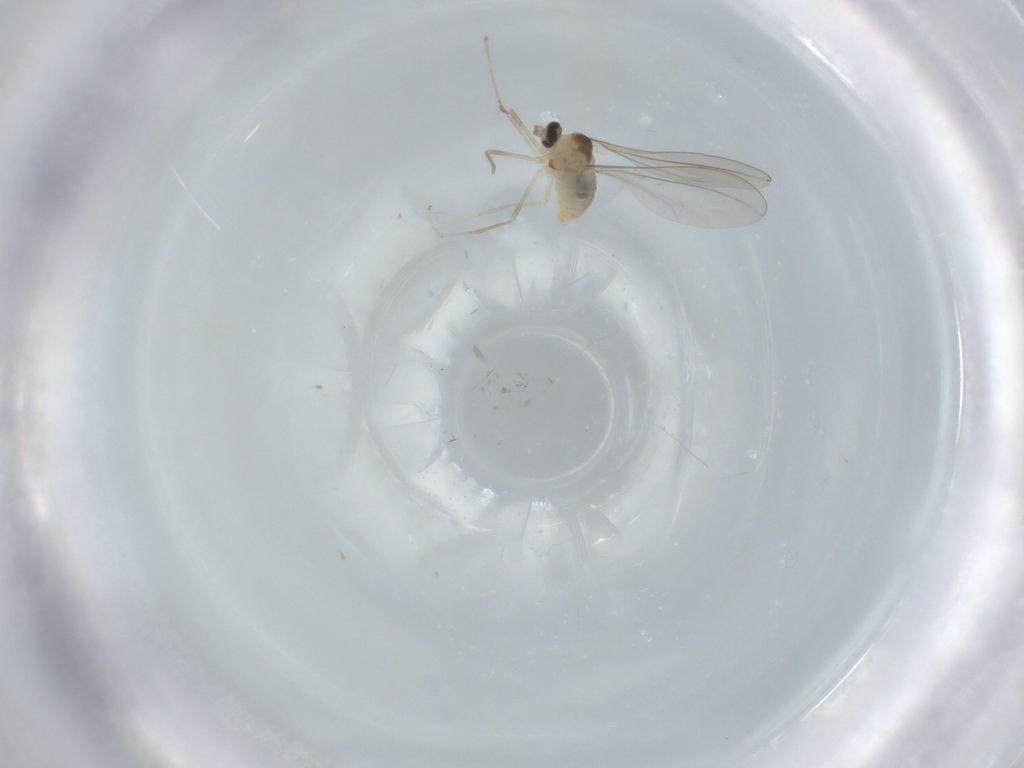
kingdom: Animalia
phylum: Arthropoda
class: Insecta
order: Diptera
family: Cecidomyiidae
